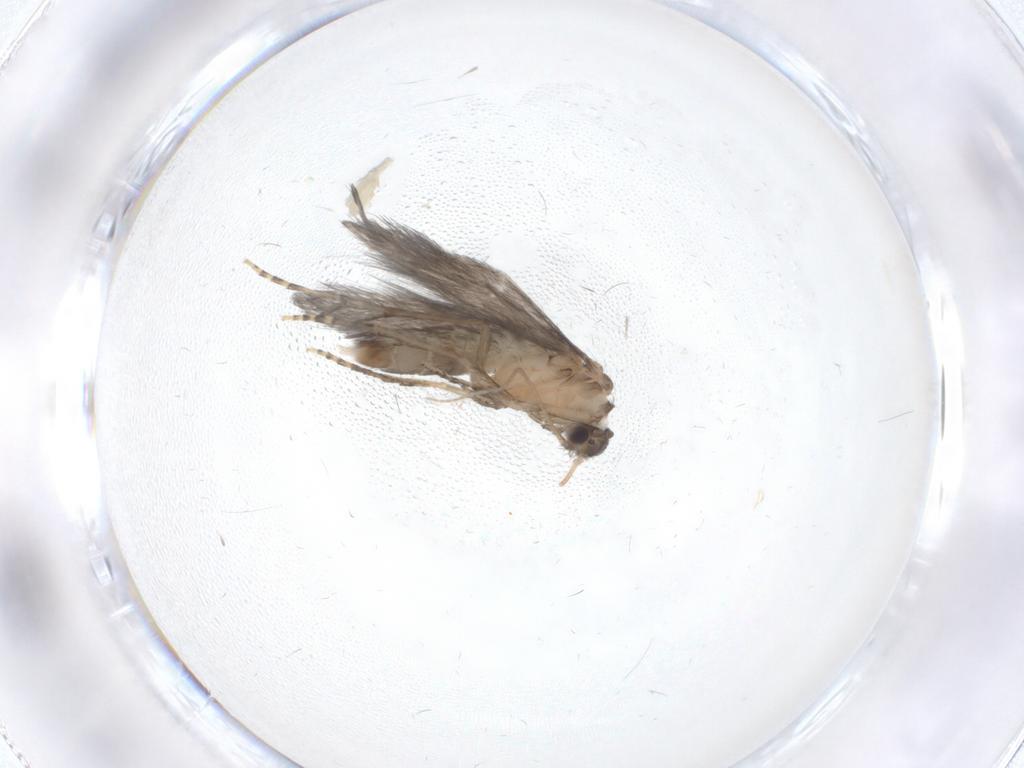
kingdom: Animalia
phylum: Arthropoda
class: Insecta
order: Trichoptera
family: Hydroptilidae
